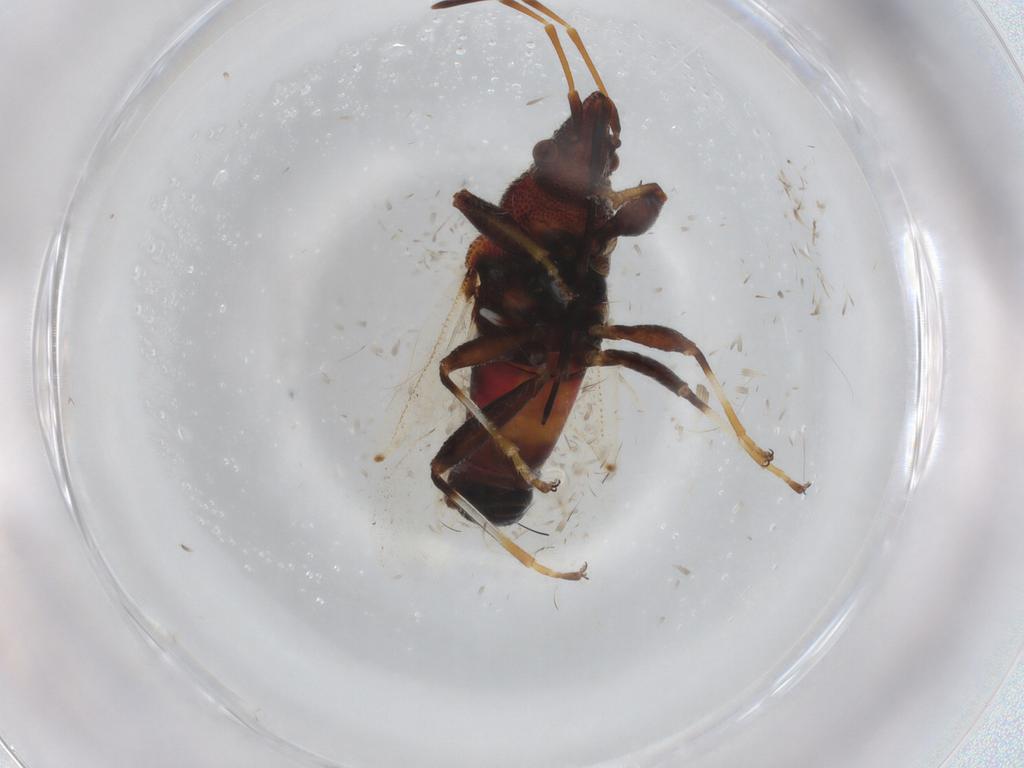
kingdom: Animalia
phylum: Arthropoda
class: Insecta
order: Hemiptera
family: Oxycarenidae
